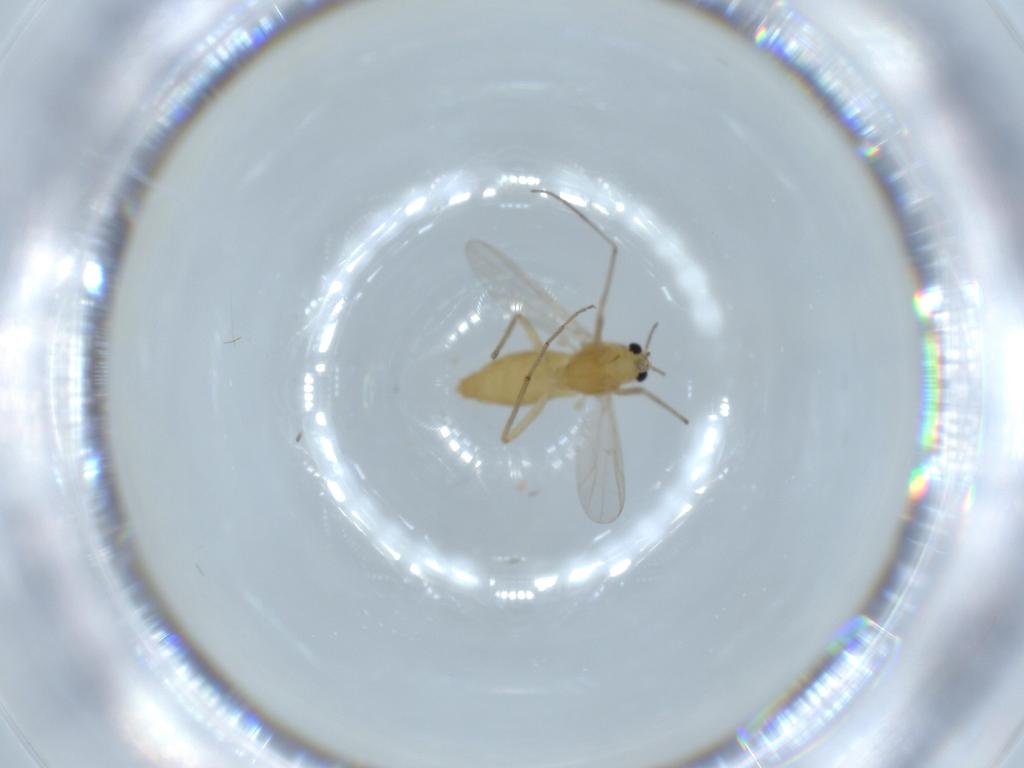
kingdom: Animalia
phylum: Arthropoda
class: Insecta
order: Diptera
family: Chironomidae
